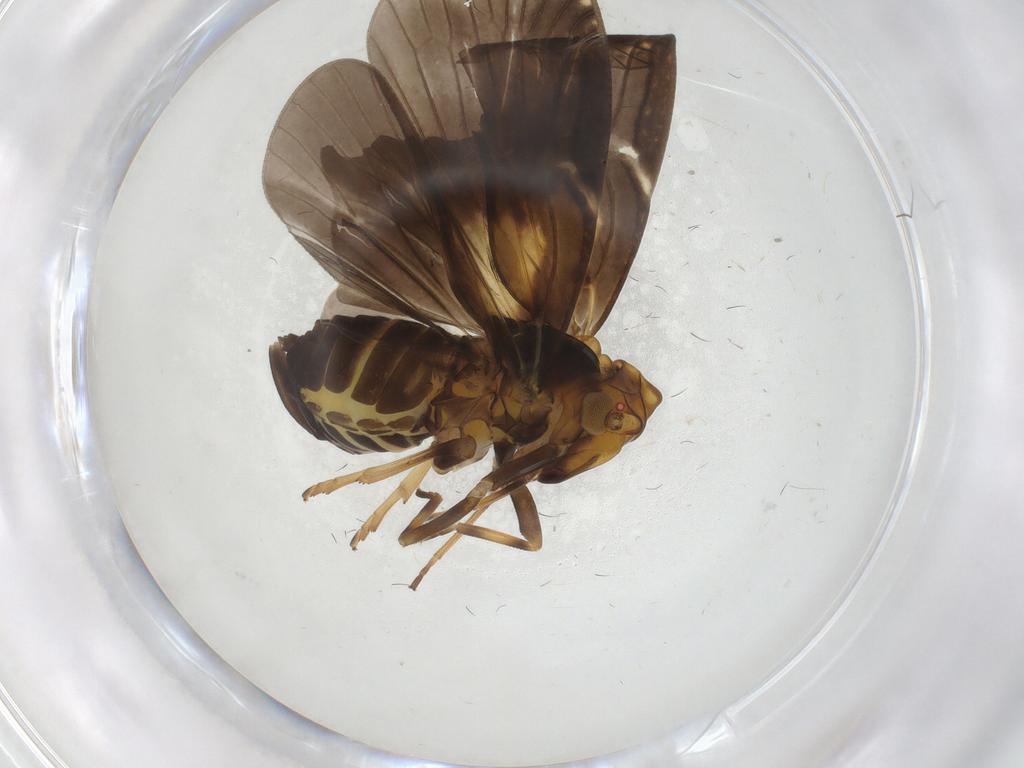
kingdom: Animalia
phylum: Arthropoda
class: Insecta
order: Hemiptera
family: Cixiidae
